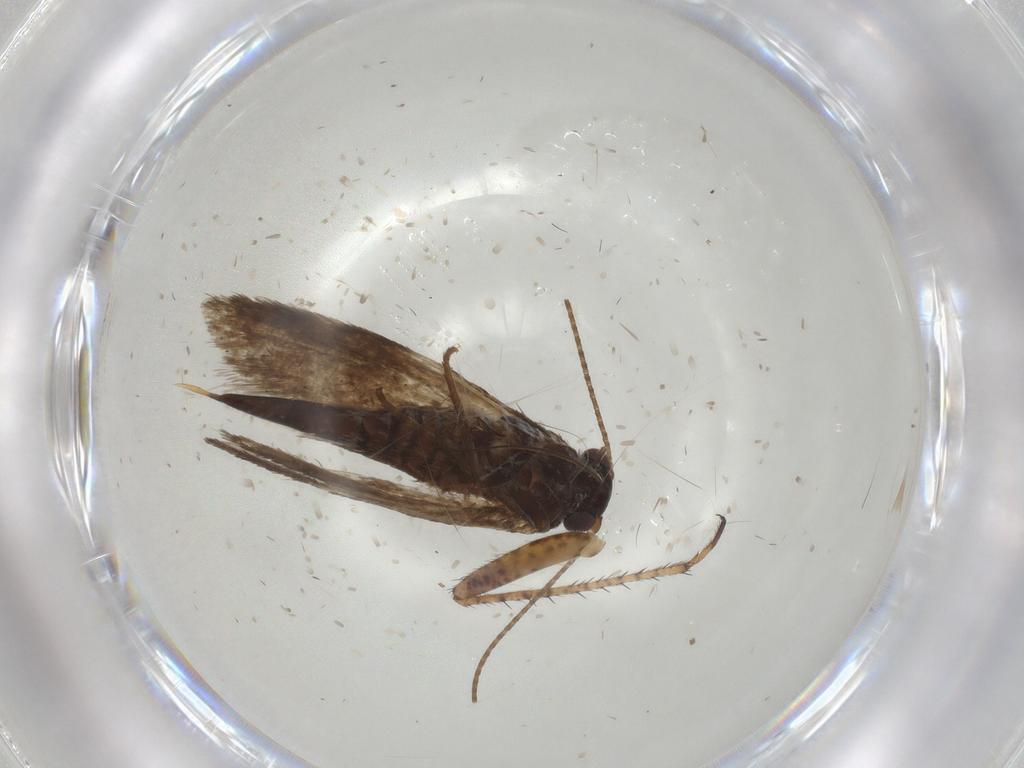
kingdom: Animalia
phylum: Arthropoda
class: Insecta
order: Lepidoptera
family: Adelidae
